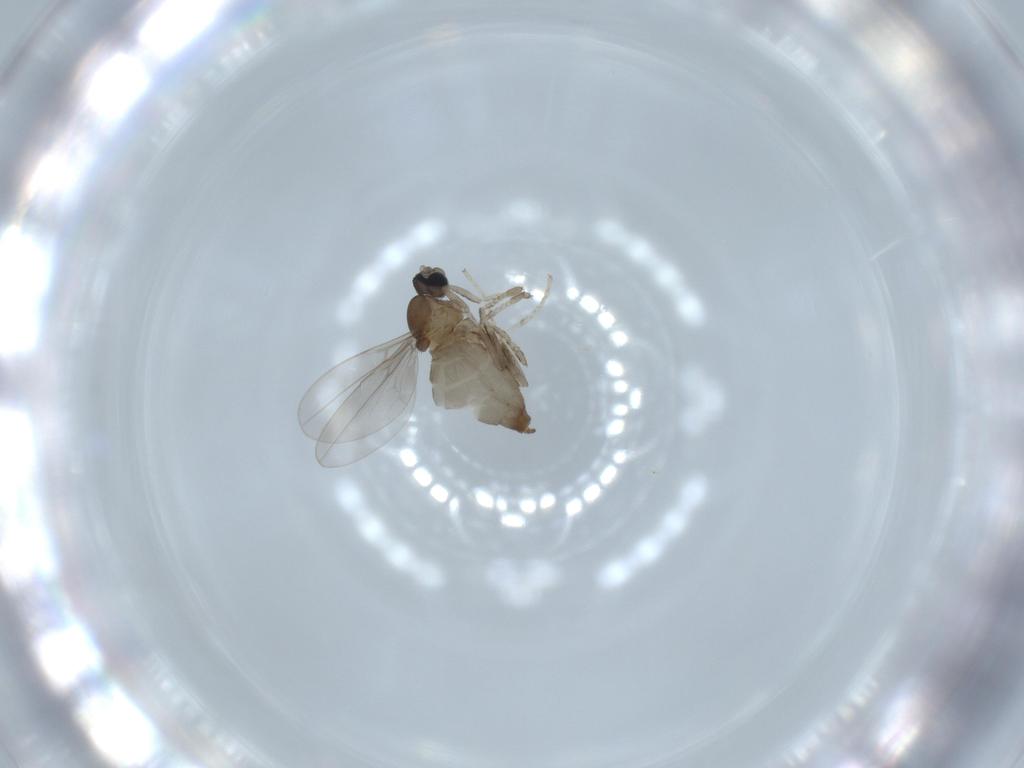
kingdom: Animalia
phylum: Arthropoda
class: Insecta
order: Diptera
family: Cecidomyiidae
